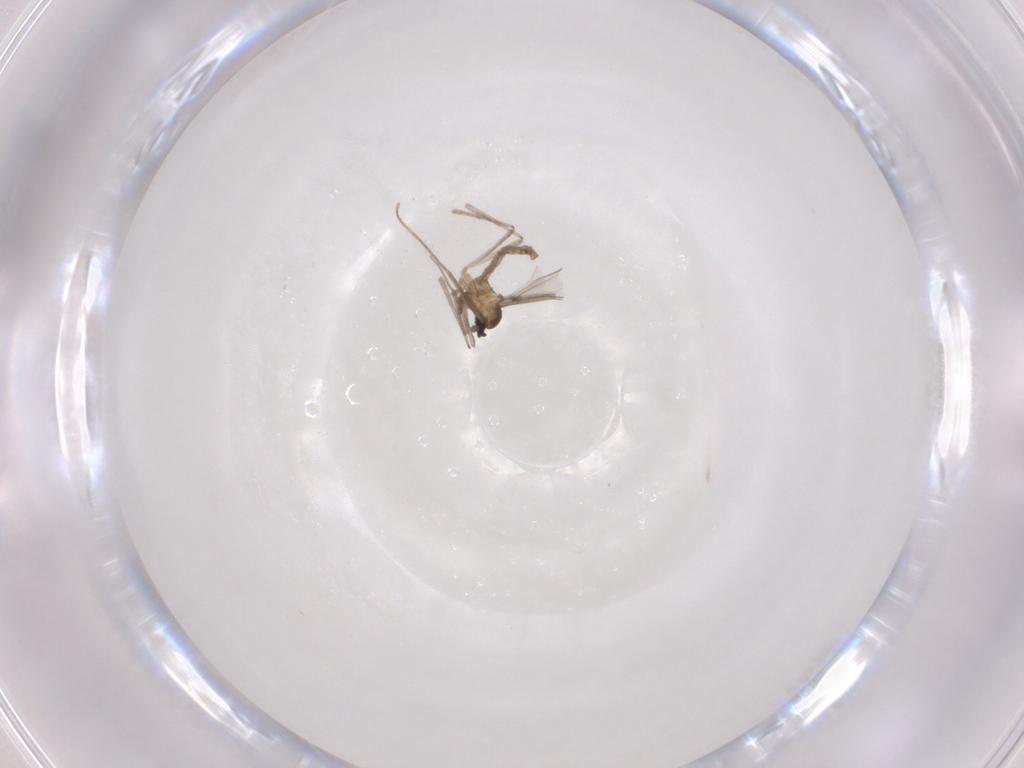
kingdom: Animalia
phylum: Arthropoda
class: Insecta
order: Diptera
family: Cecidomyiidae
